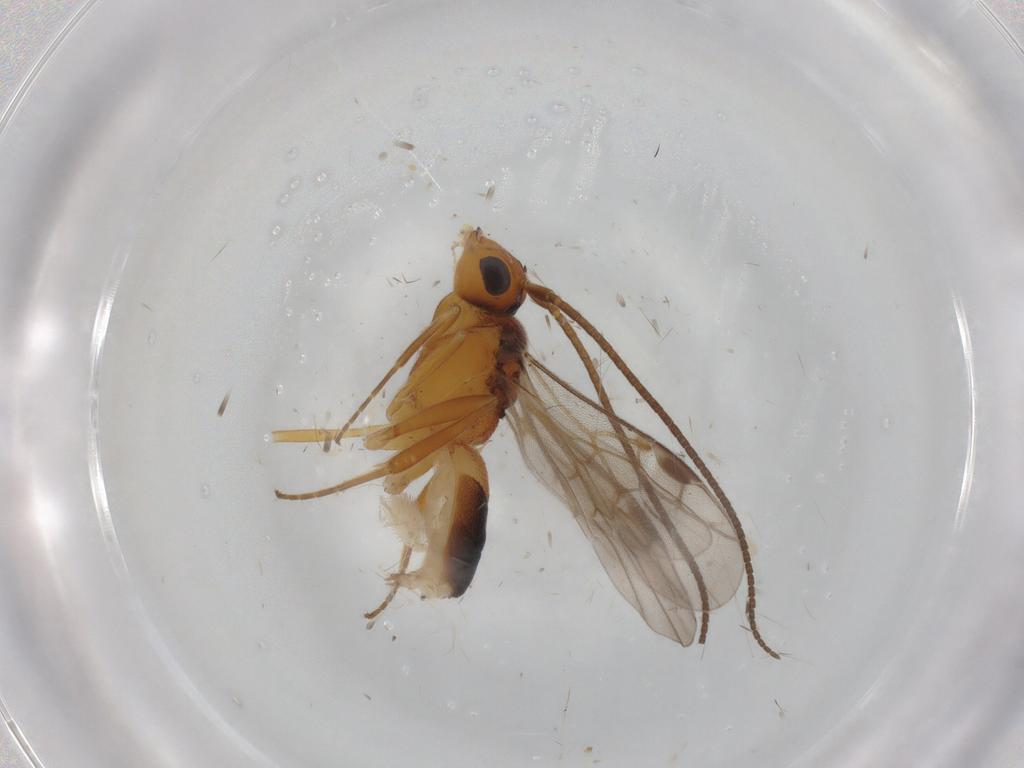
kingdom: Animalia
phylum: Arthropoda
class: Insecta
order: Hymenoptera
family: Braconidae
